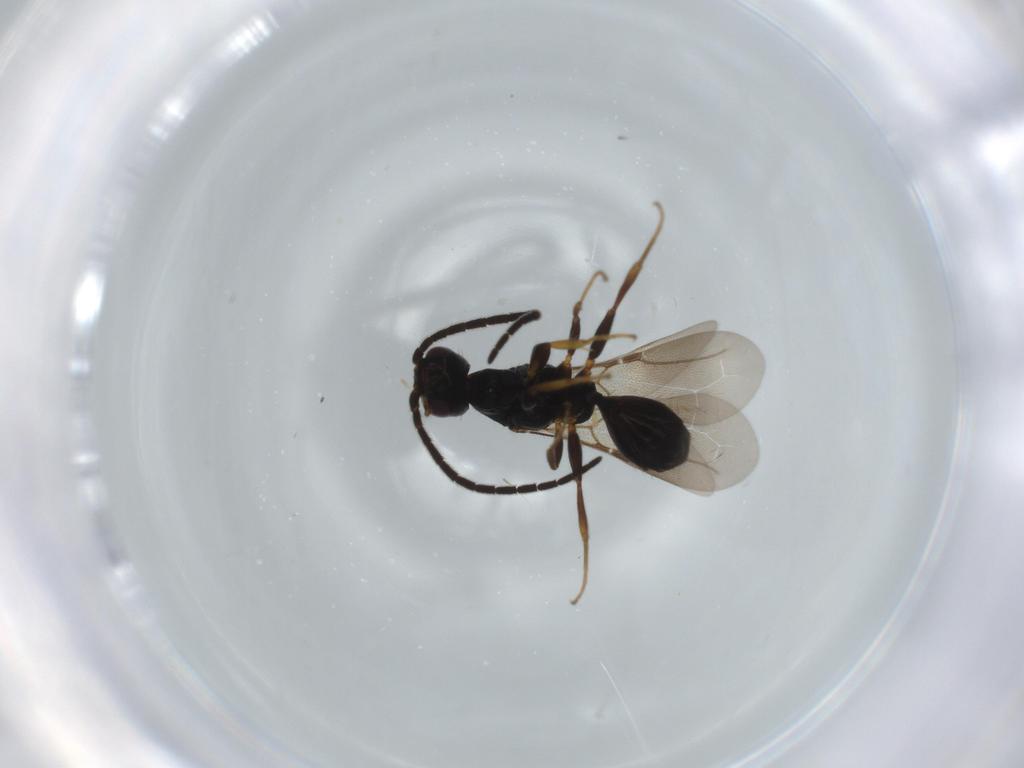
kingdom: Animalia
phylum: Arthropoda
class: Insecta
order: Hymenoptera
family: Bethylidae
